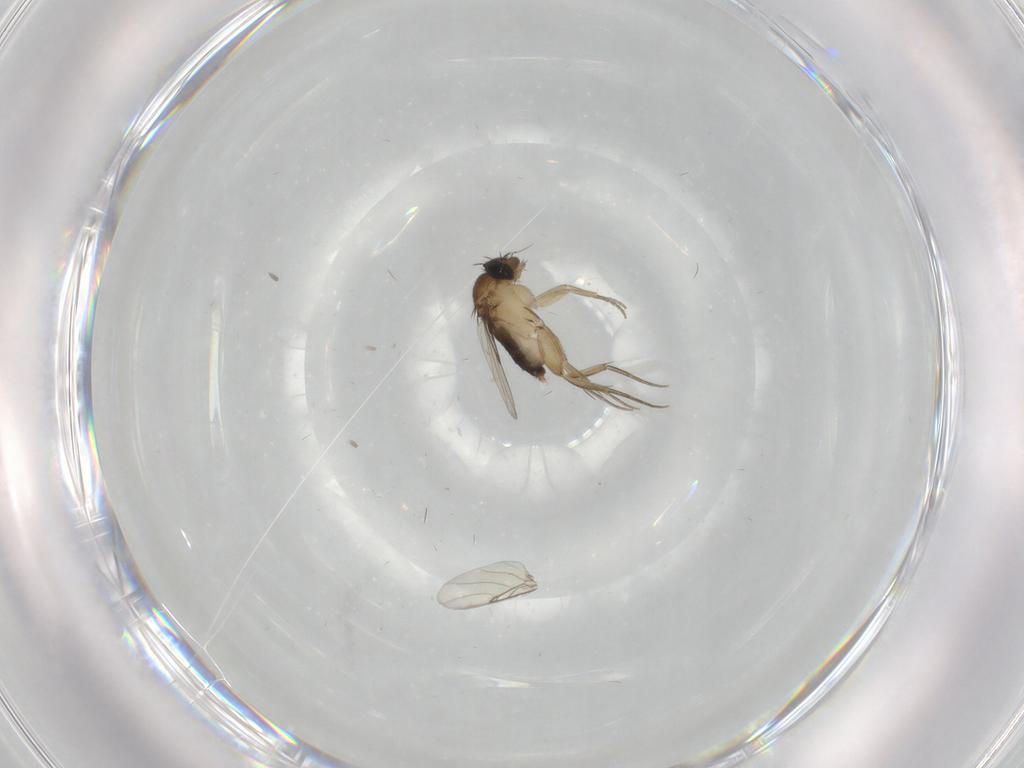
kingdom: Animalia
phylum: Arthropoda
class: Insecta
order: Diptera
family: Phoridae
